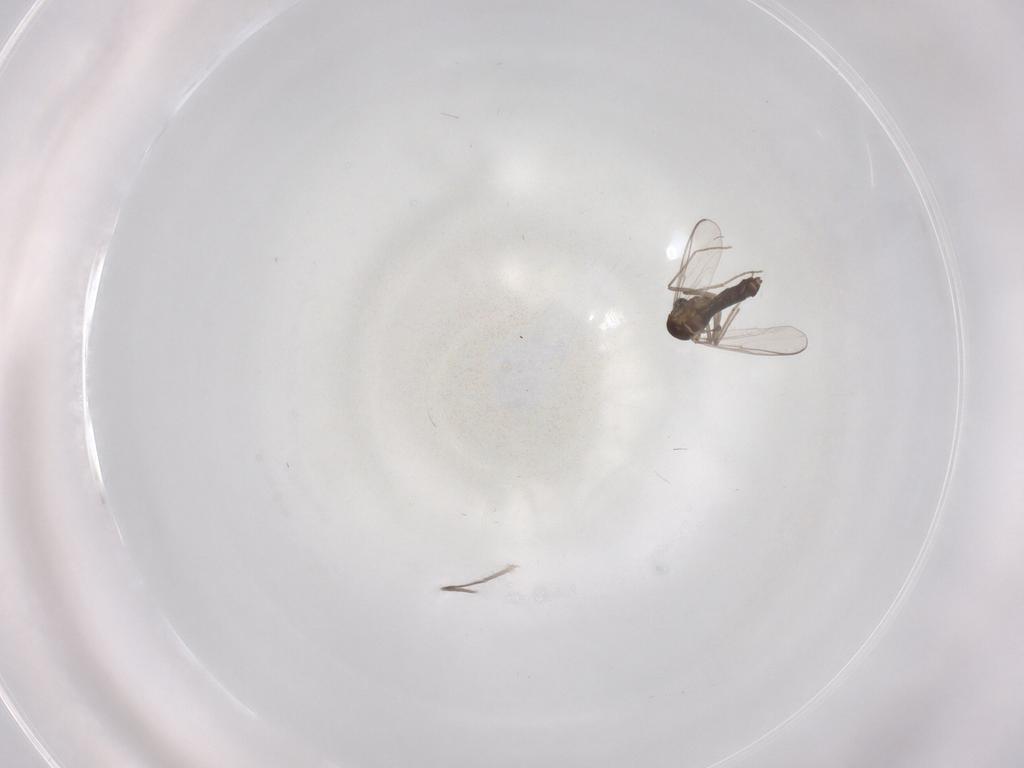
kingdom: Animalia
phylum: Arthropoda
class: Insecta
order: Diptera
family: Chironomidae
